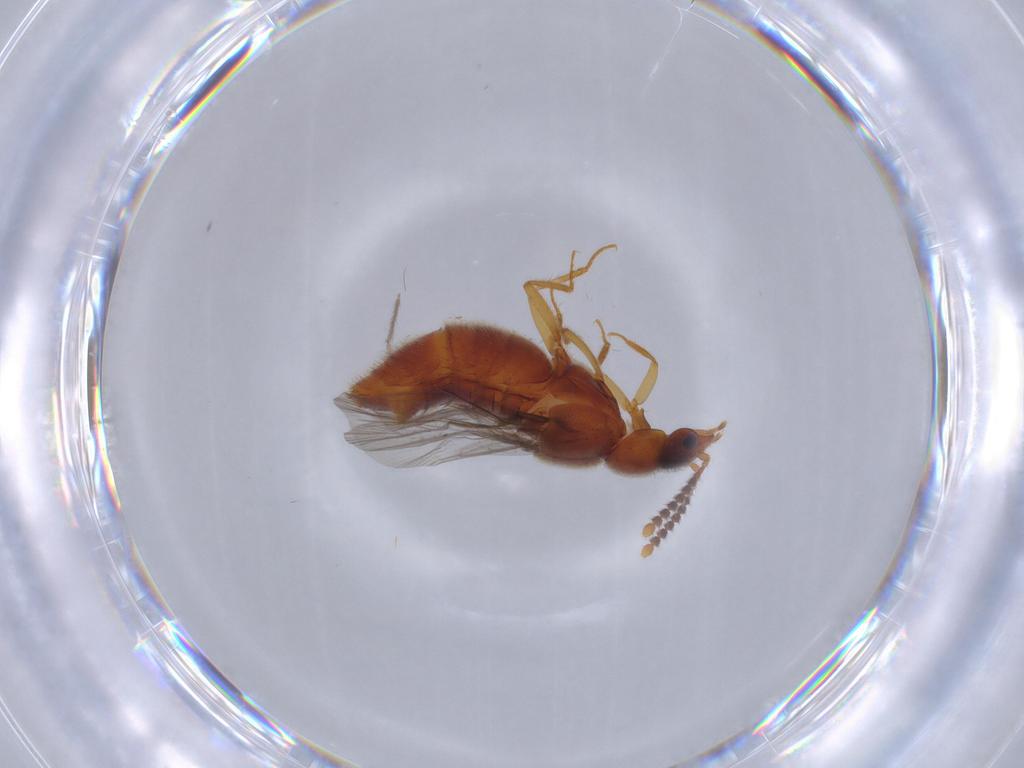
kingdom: Animalia
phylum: Arthropoda
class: Insecta
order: Coleoptera
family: Staphylinidae
